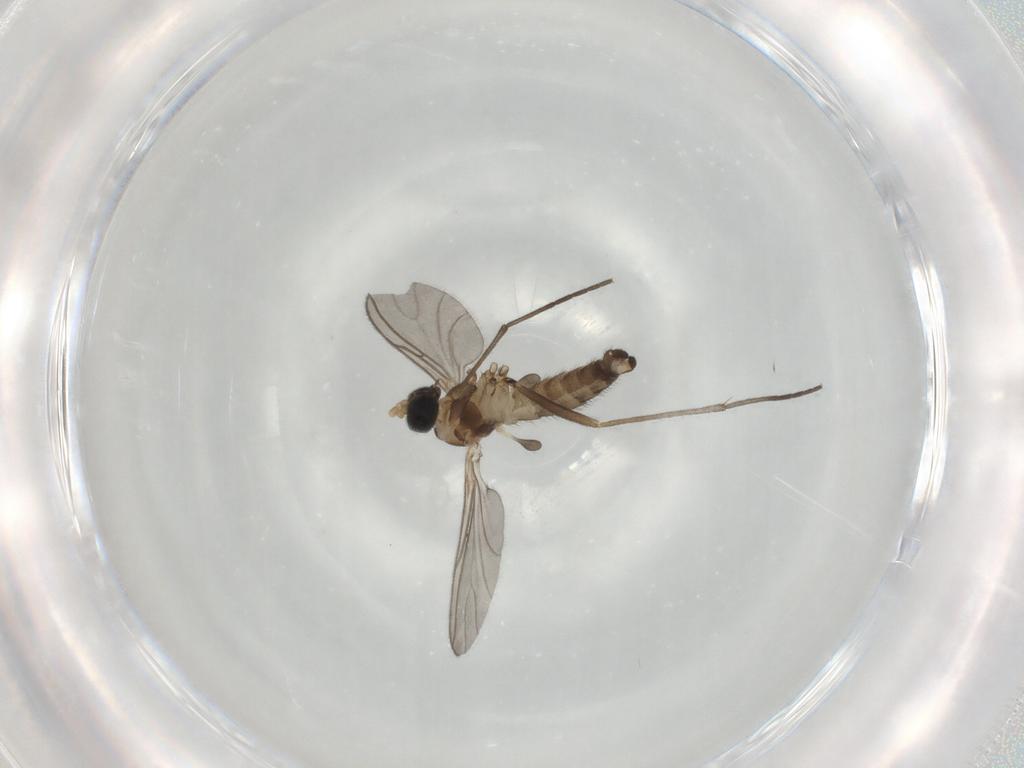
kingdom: Animalia
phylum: Arthropoda
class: Insecta
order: Diptera
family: Sciaridae
